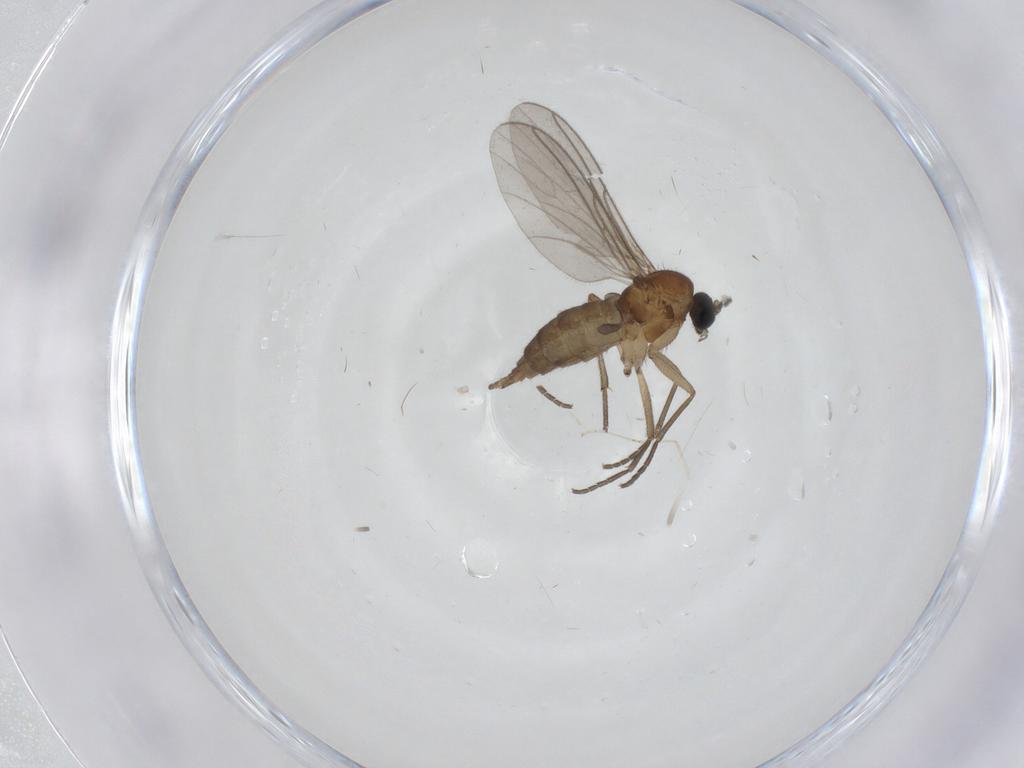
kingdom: Animalia
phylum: Arthropoda
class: Insecta
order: Diptera
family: Sciaridae
